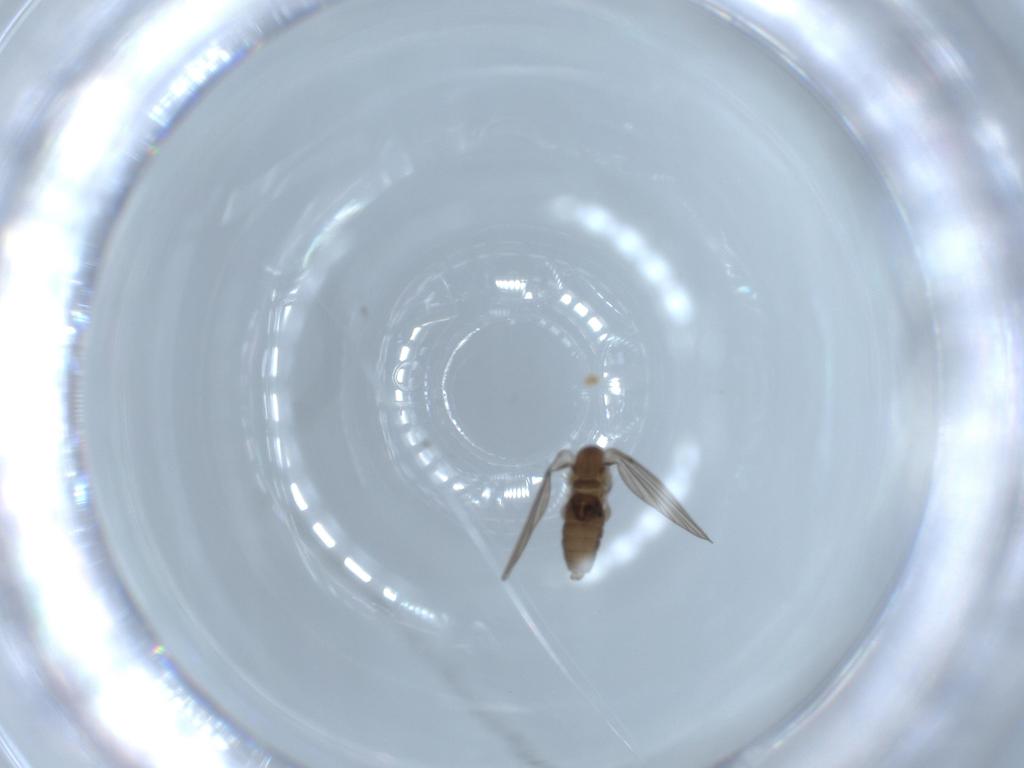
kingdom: Animalia
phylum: Arthropoda
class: Insecta
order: Diptera
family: Psychodidae
